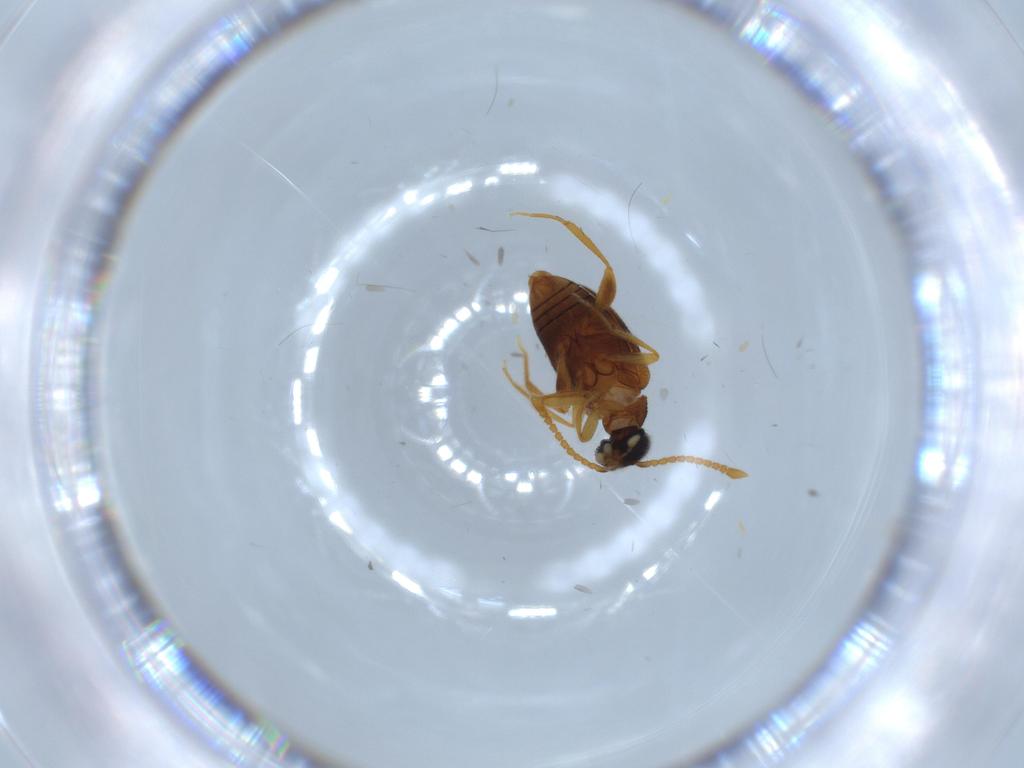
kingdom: Animalia
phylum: Arthropoda
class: Insecta
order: Coleoptera
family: Aderidae
